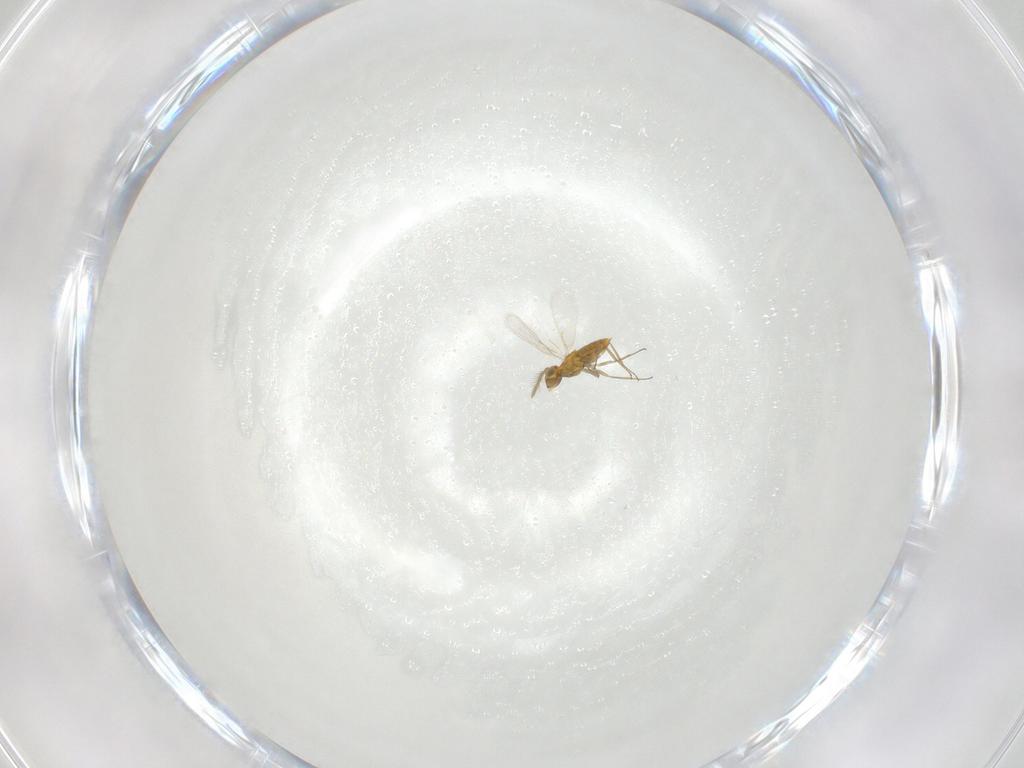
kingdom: Animalia
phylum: Arthropoda
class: Insecta
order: Hymenoptera
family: Aphelinidae
